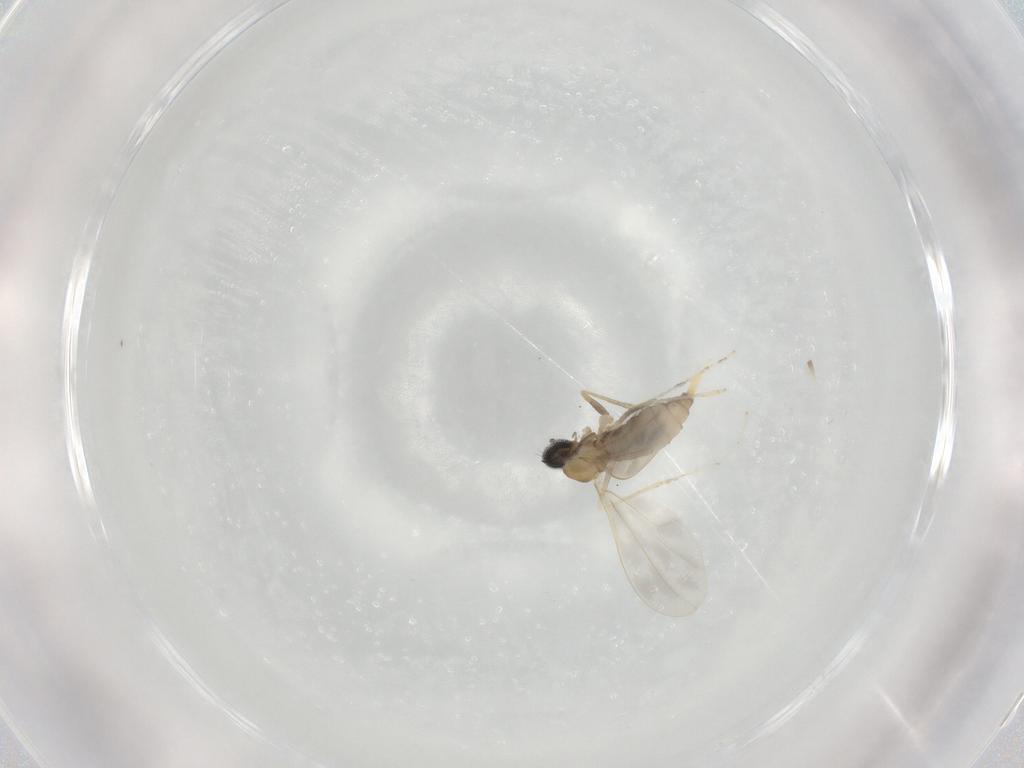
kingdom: Animalia
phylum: Arthropoda
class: Insecta
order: Diptera
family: Cecidomyiidae
